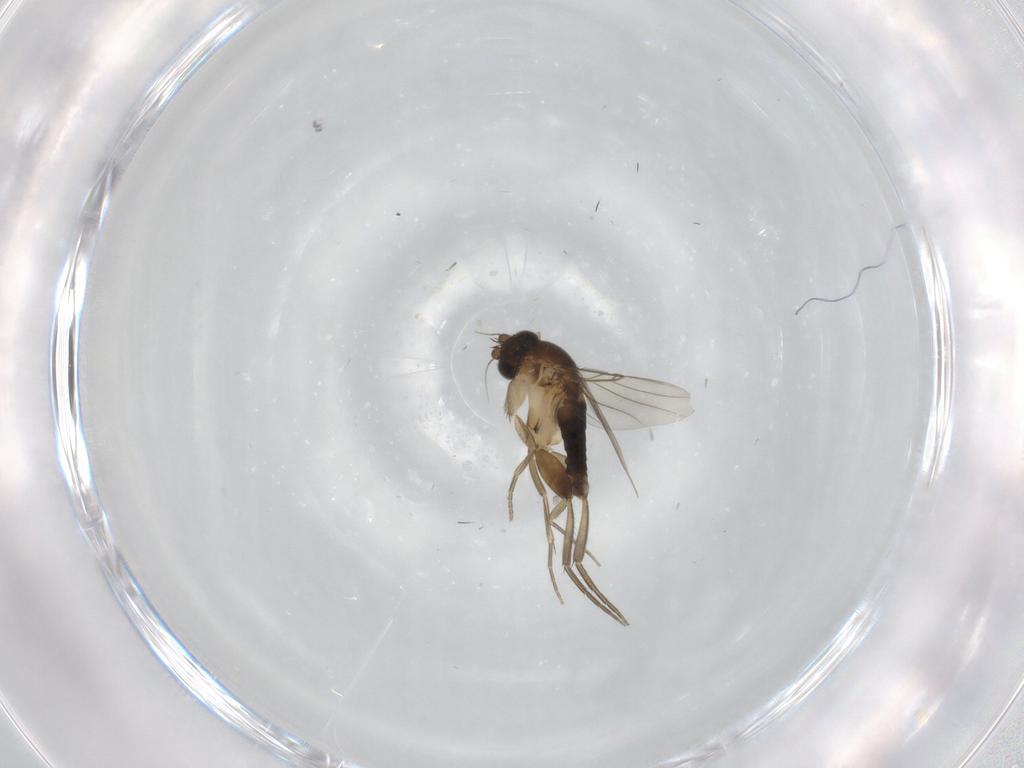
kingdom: Animalia
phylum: Arthropoda
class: Insecta
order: Diptera
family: Phoridae
